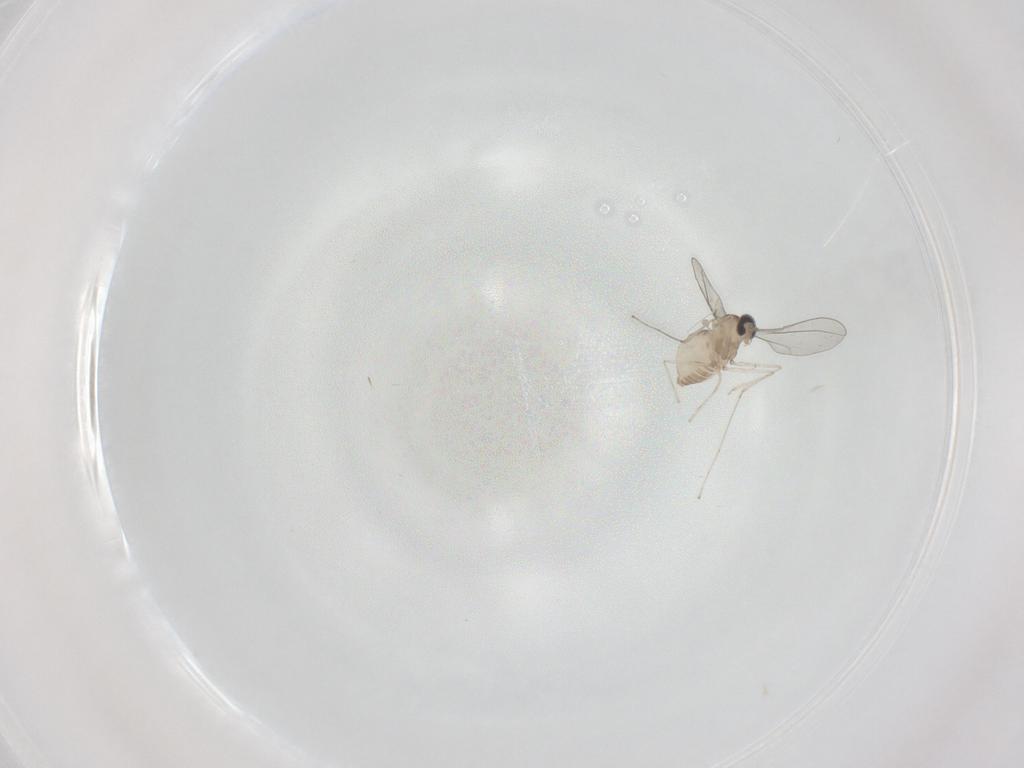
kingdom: Animalia
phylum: Arthropoda
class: Insecta
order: Diptera
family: Cecidomyiidae
